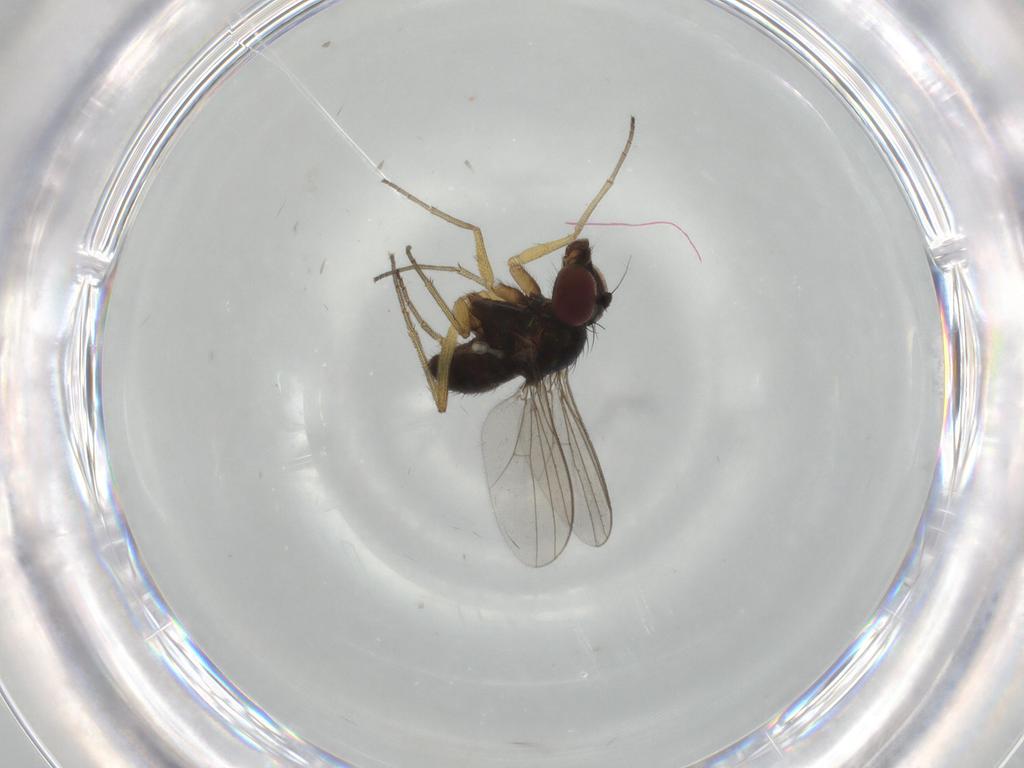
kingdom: Animalia
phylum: Arthropoda
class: Insecta
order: Diptera
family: Dolichopodidae
